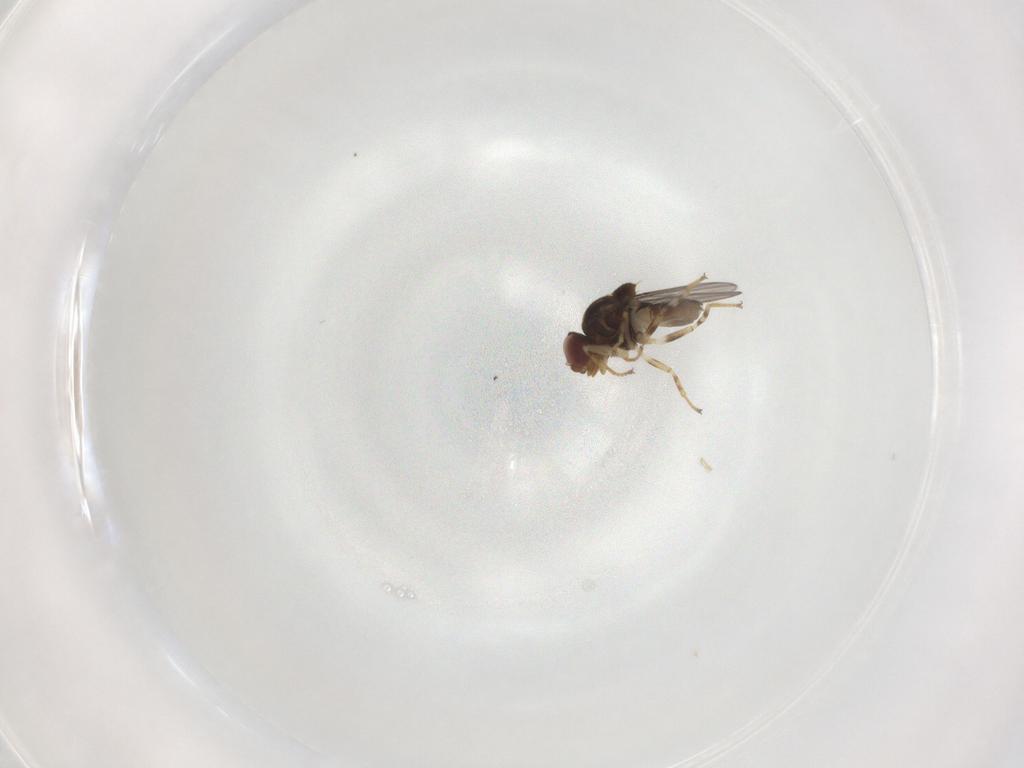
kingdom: Animalia
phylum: Arthropoda
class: Insecta
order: Diptera
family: Chloropidae
